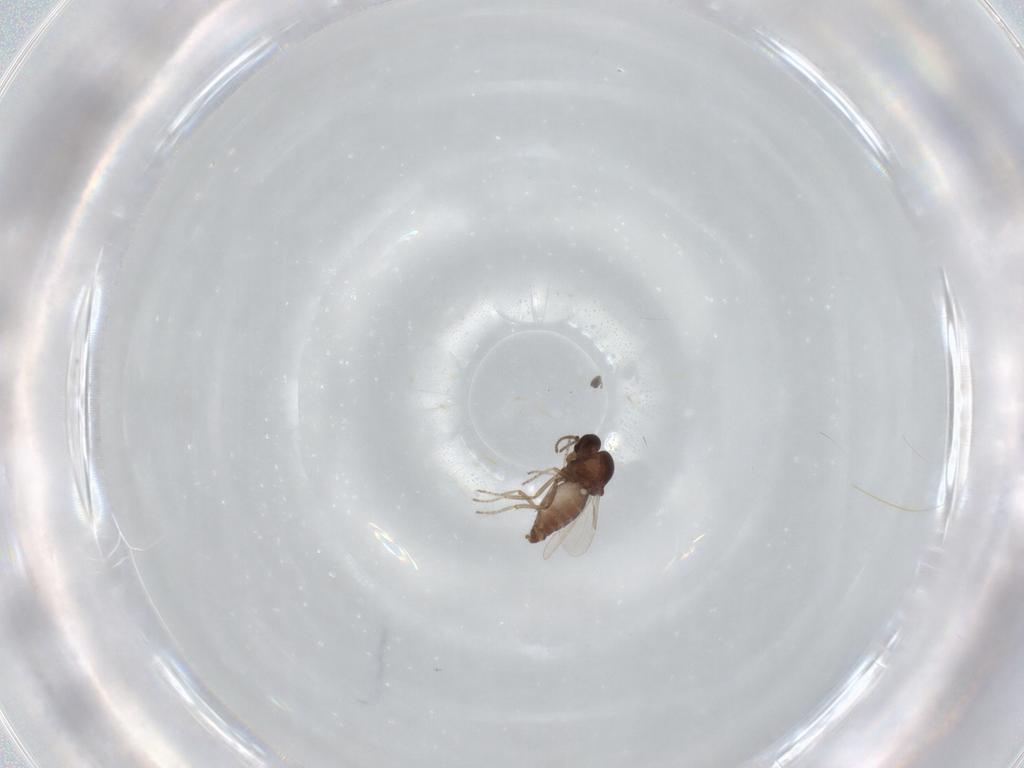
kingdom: Animalia
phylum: Arthropoda
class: Insecta
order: Diptera
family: Ceratopogonidae
